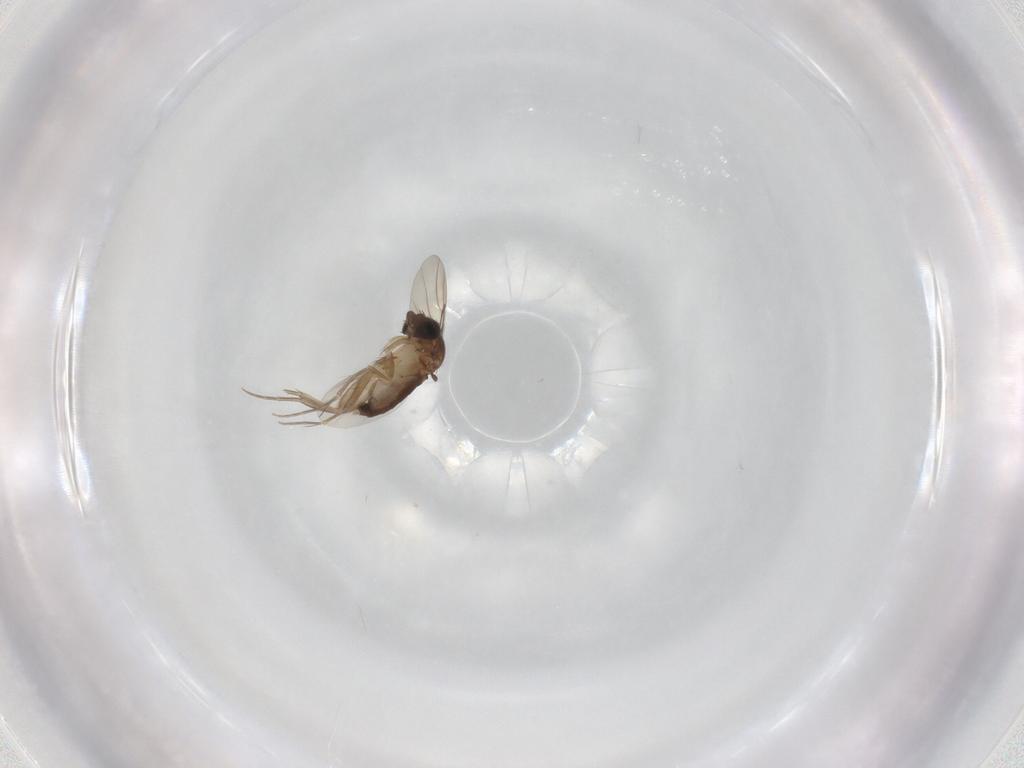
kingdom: Animalia
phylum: Arthropoda
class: Insecta
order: Diptera
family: Phoridae
